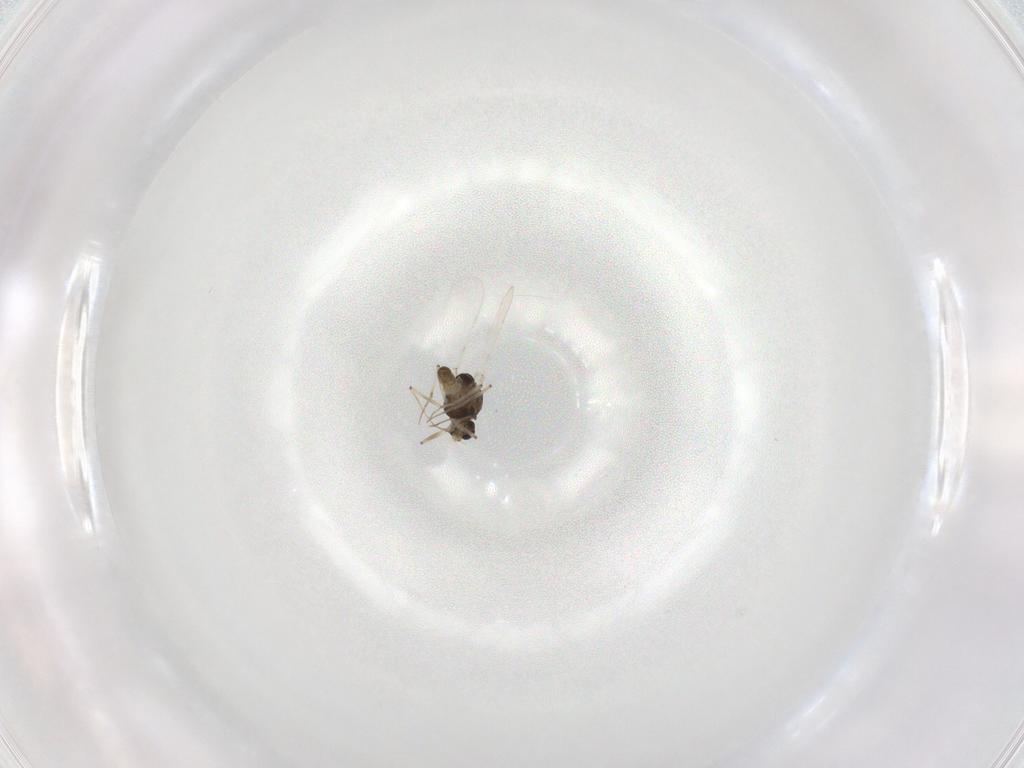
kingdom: Animalia
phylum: Arthropoda
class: Insecta
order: Diptera
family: Chironomidae
